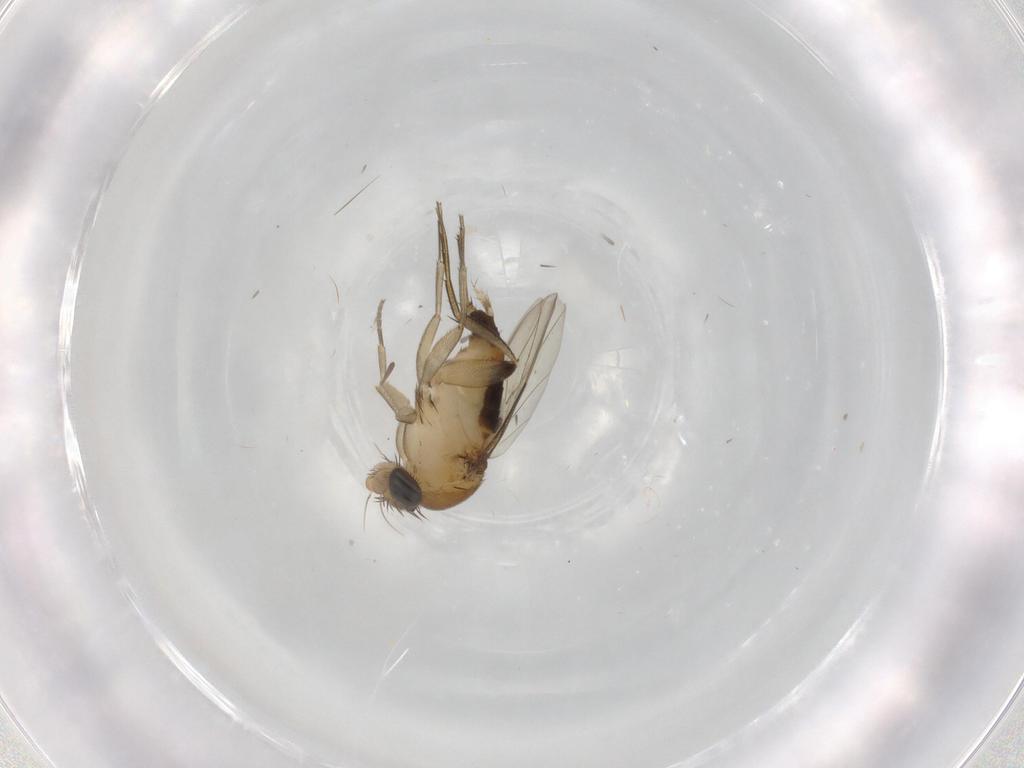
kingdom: Animalia
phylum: Arthropoda
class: Insecta
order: Diptera
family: Phoridae
